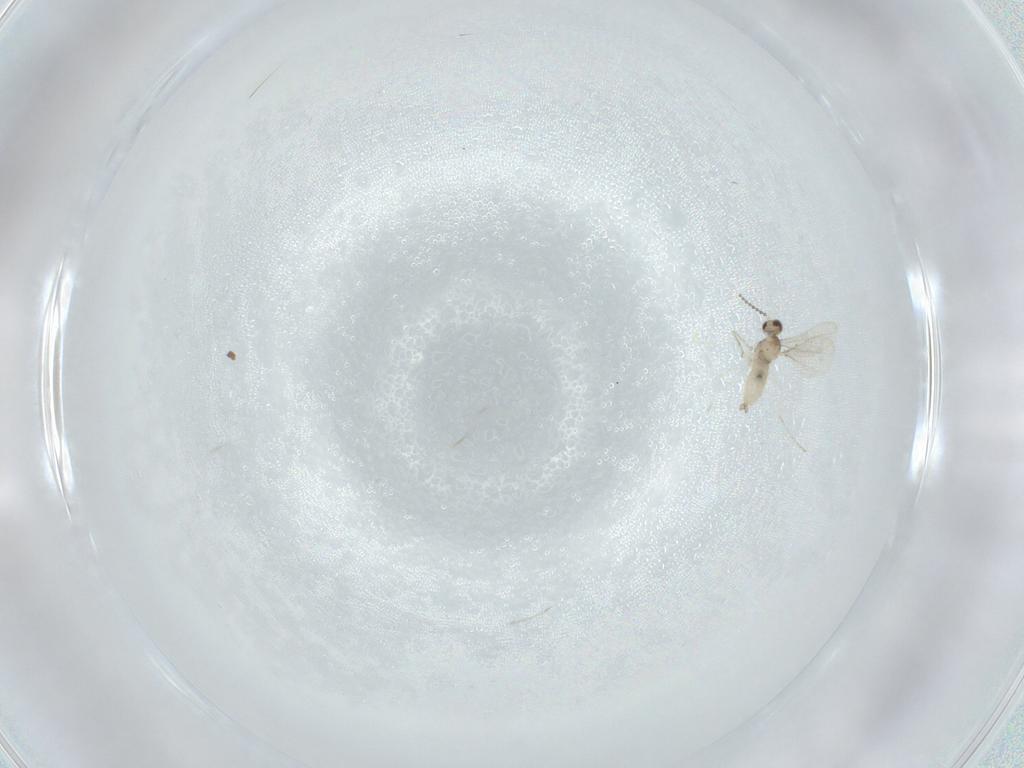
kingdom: Animalia
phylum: Arthropoda
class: Insecta
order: Diptera
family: Cecidomyiidae
